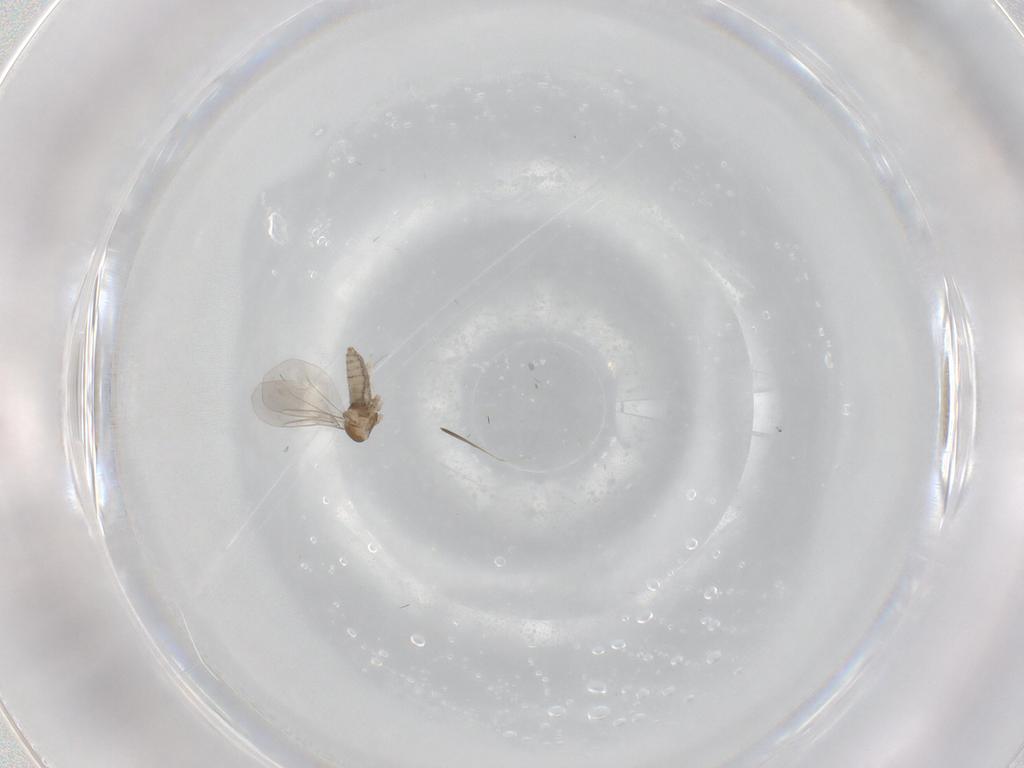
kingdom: Animalia
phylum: Arthropoda
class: Insecta
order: Diptera
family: Cecidomyiidae
